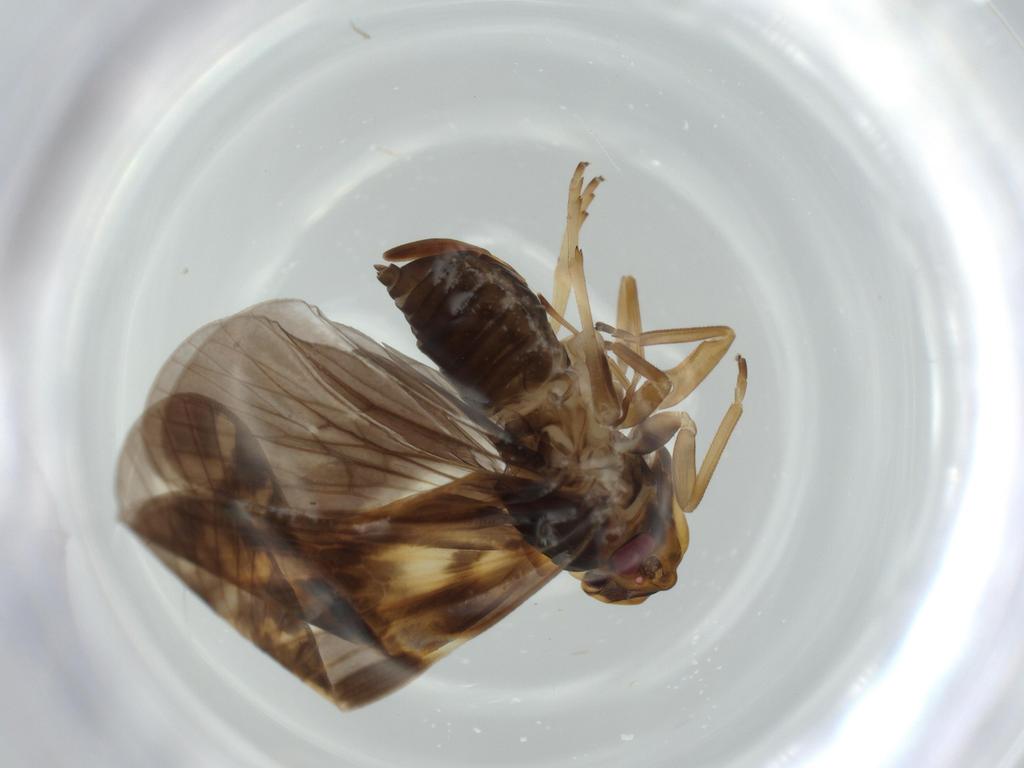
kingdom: Animalia
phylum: Arthropoda
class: Insecta
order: Hemiptera
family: Cixiidae
